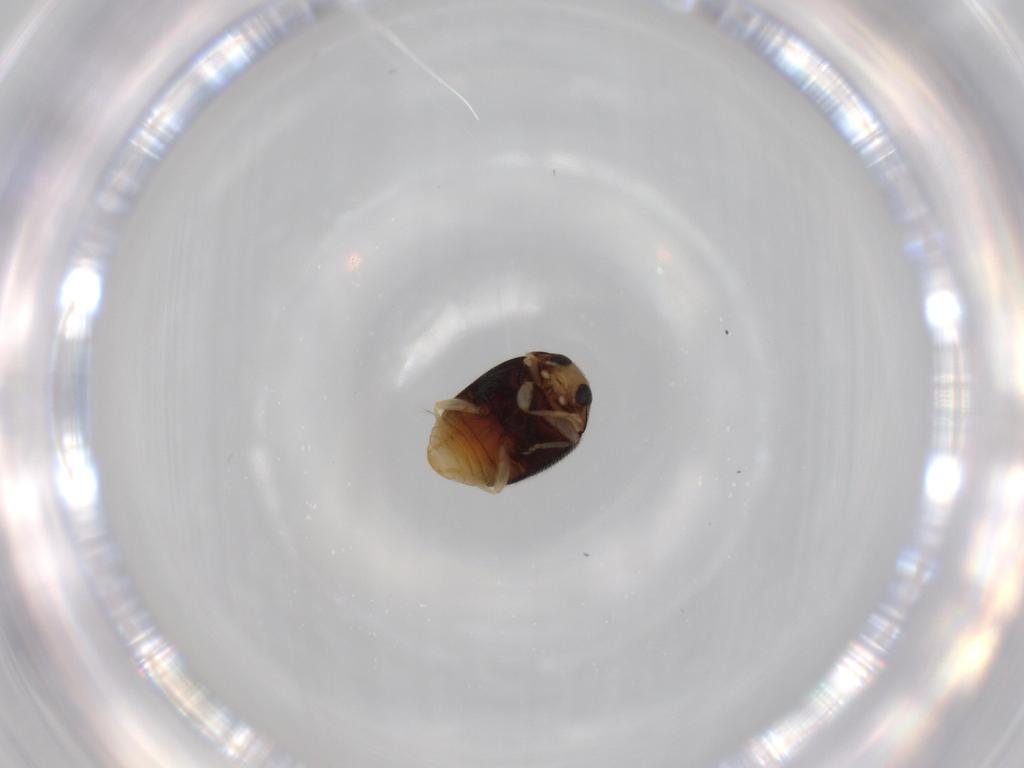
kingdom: Animalia
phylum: Arthropoda
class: Insecta
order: Coleoptera
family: Coccinellidae
